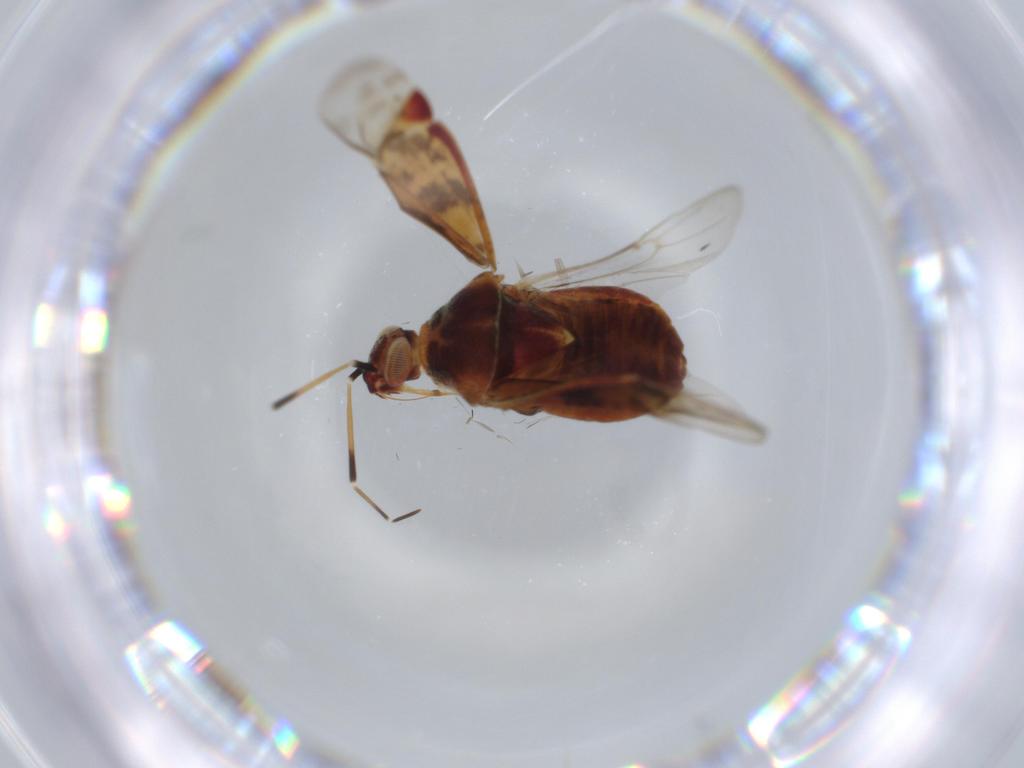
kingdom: Animalia
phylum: Arthropoda
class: Insecta
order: Hemiptera
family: Miridae
